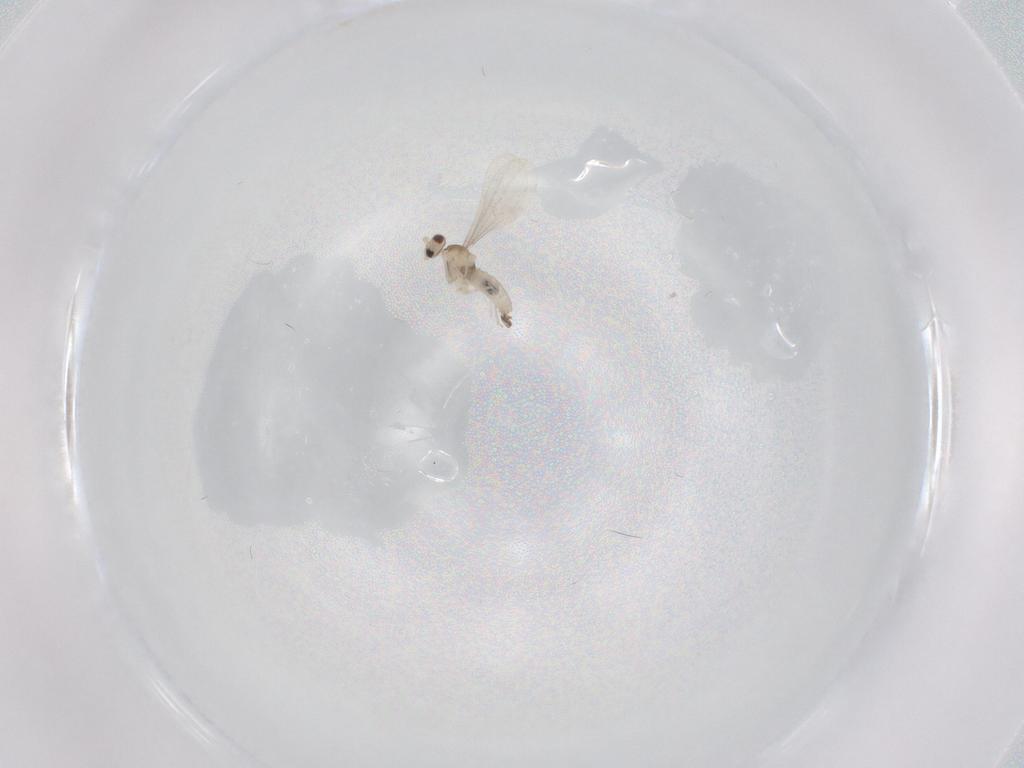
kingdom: Animalia
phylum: Arthropoda
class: Insecta
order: Diptera
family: Cecidomyiidae
